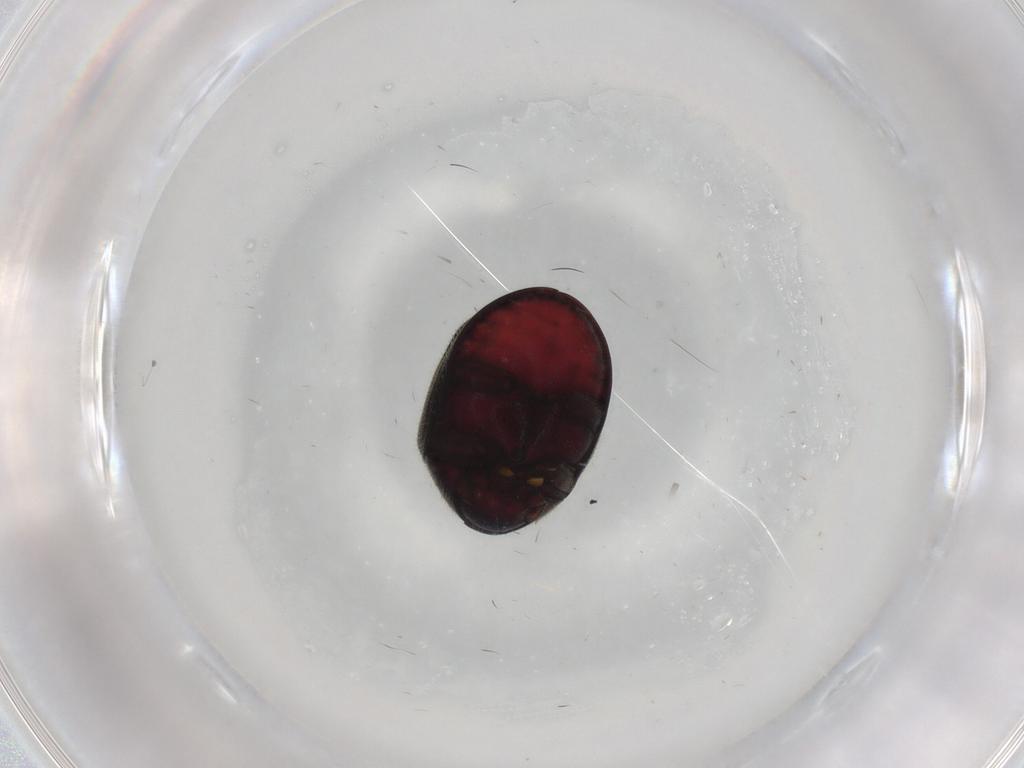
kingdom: Animalia
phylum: Arthropoda
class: Insecta
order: Coleoptera
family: Ptinidae
